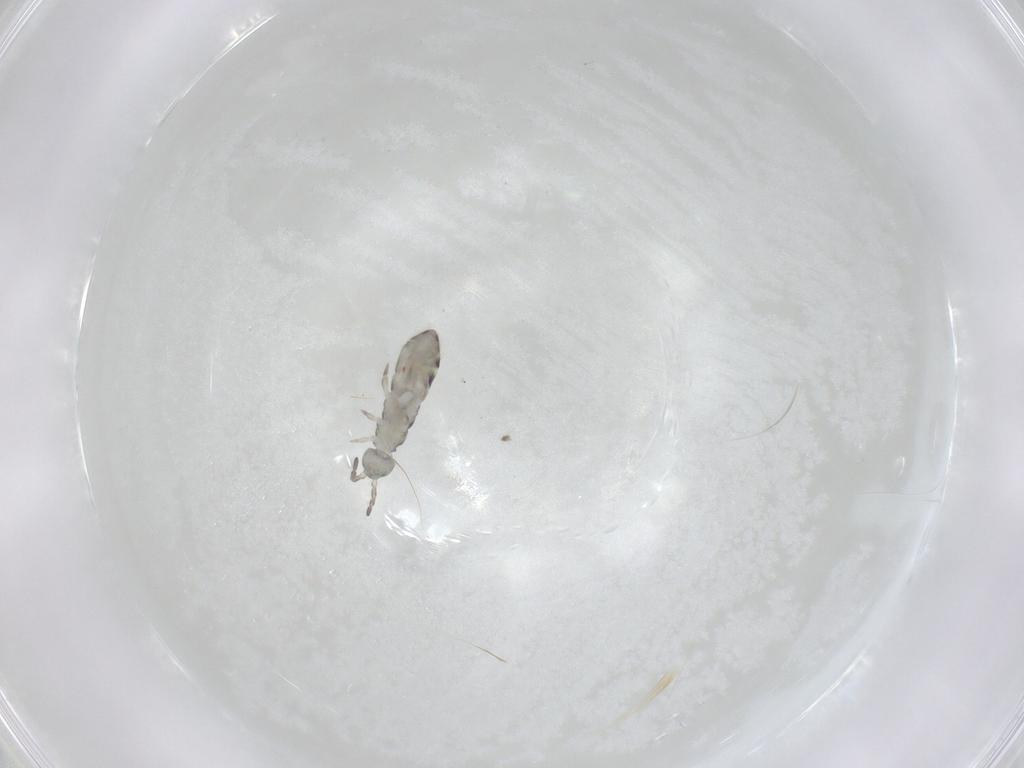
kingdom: Animalia
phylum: Arthropoda
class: Collembola
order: Entomobryomorpha
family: Isotomidae
